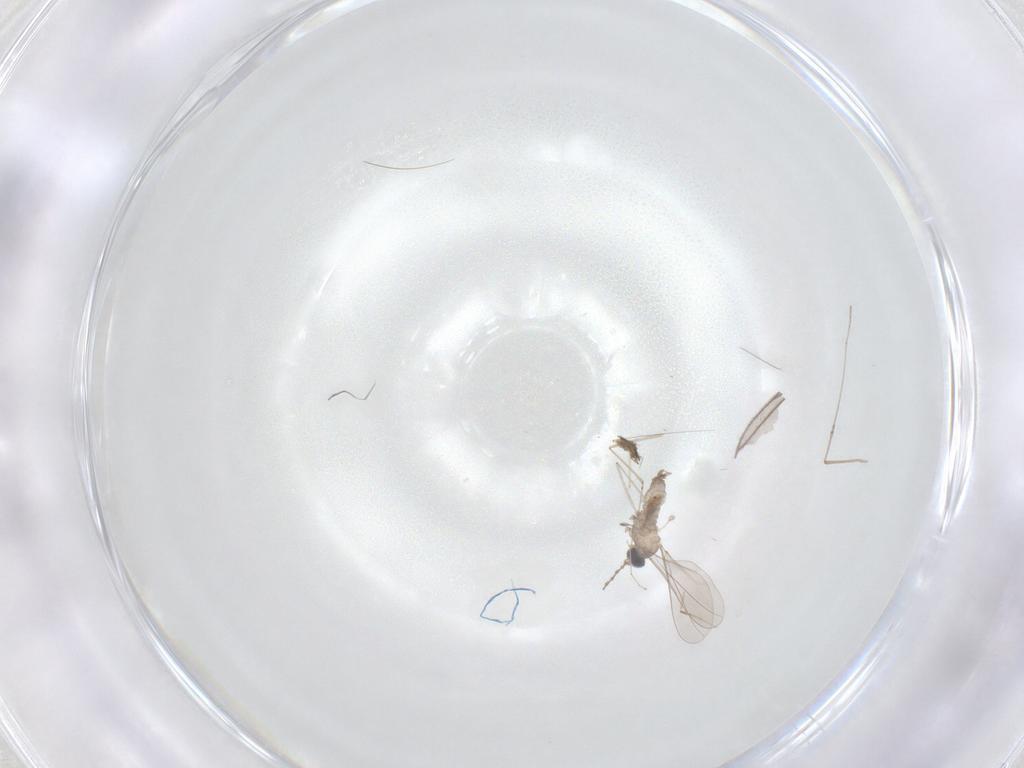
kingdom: Animalia
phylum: Arthropoda
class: Insecta
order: Diptera
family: Cecidomyiidae
